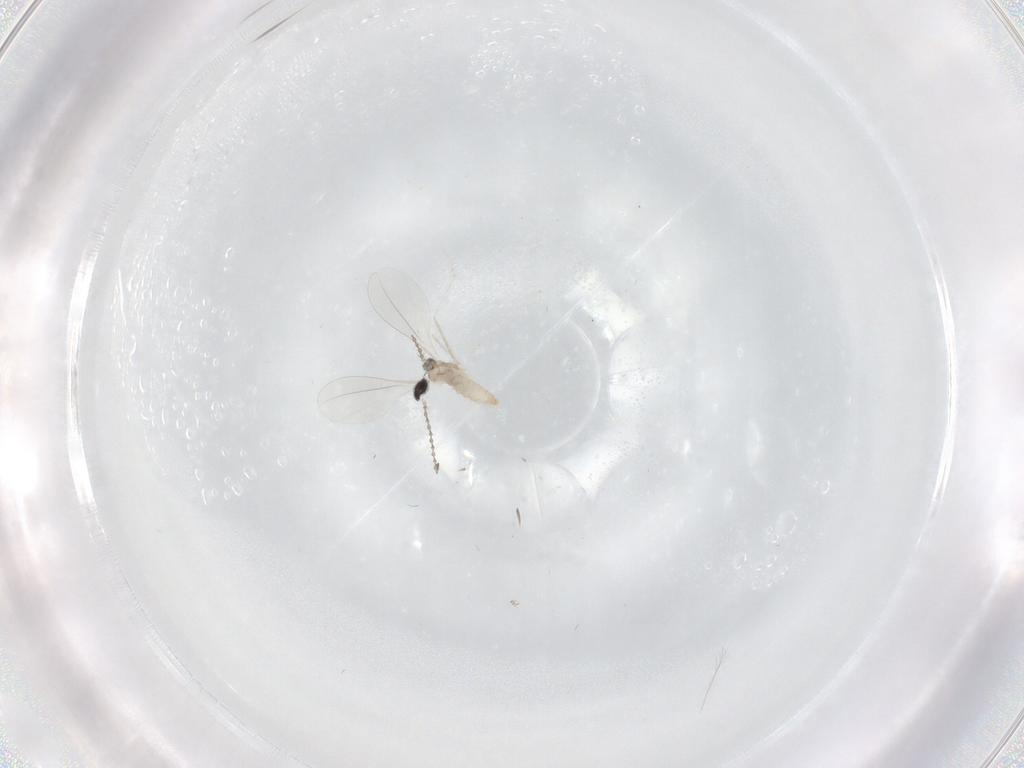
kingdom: Animalia
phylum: Arthropoda
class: Insecta
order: Diptera
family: Cecidomyiidae
